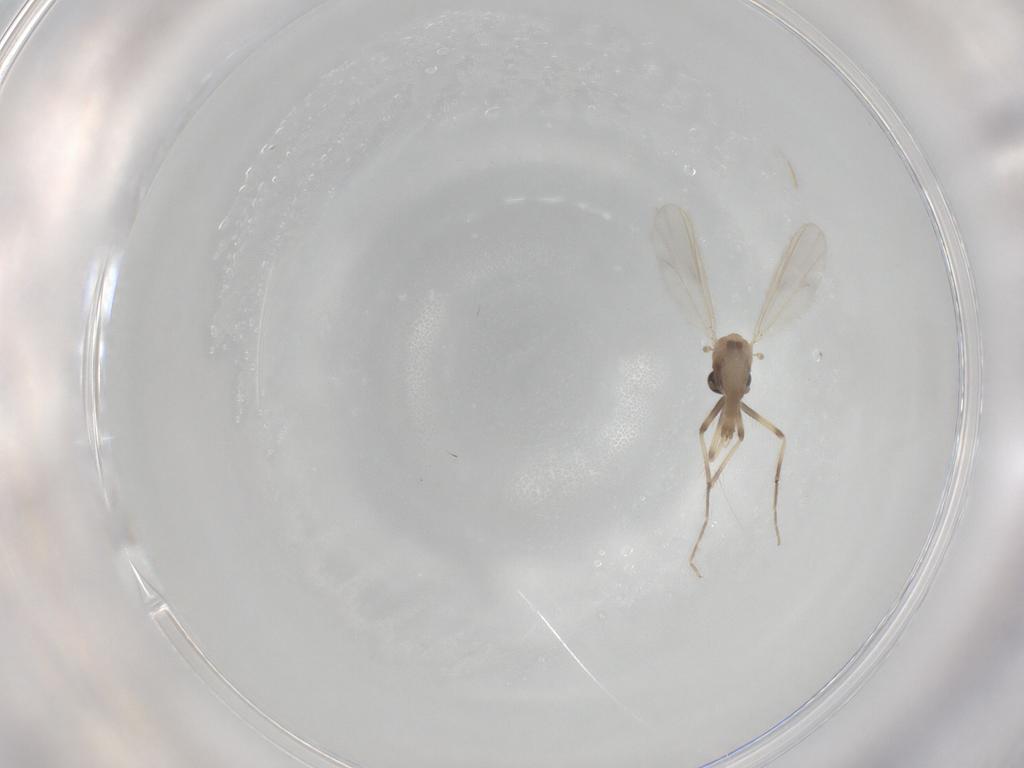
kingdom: Animalia
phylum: Arthropoda
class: Insecta
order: Diptera
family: Chironomidae
